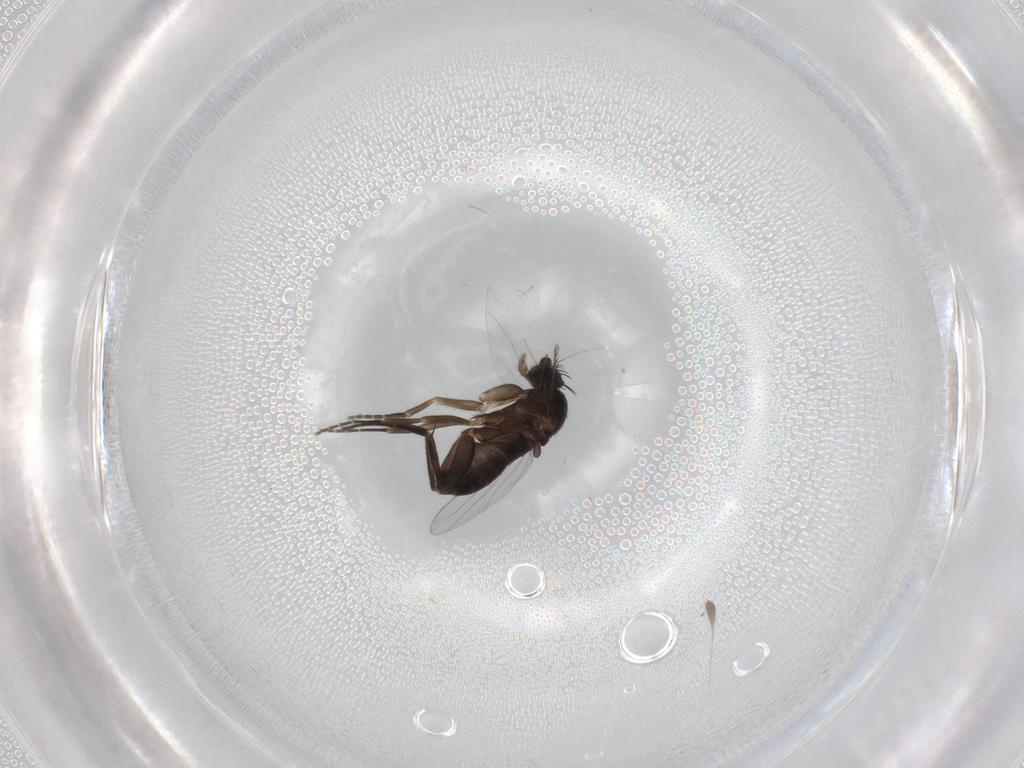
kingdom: Animalia
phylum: Arthropoda
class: Insecta
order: Diptera
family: Phoridae
